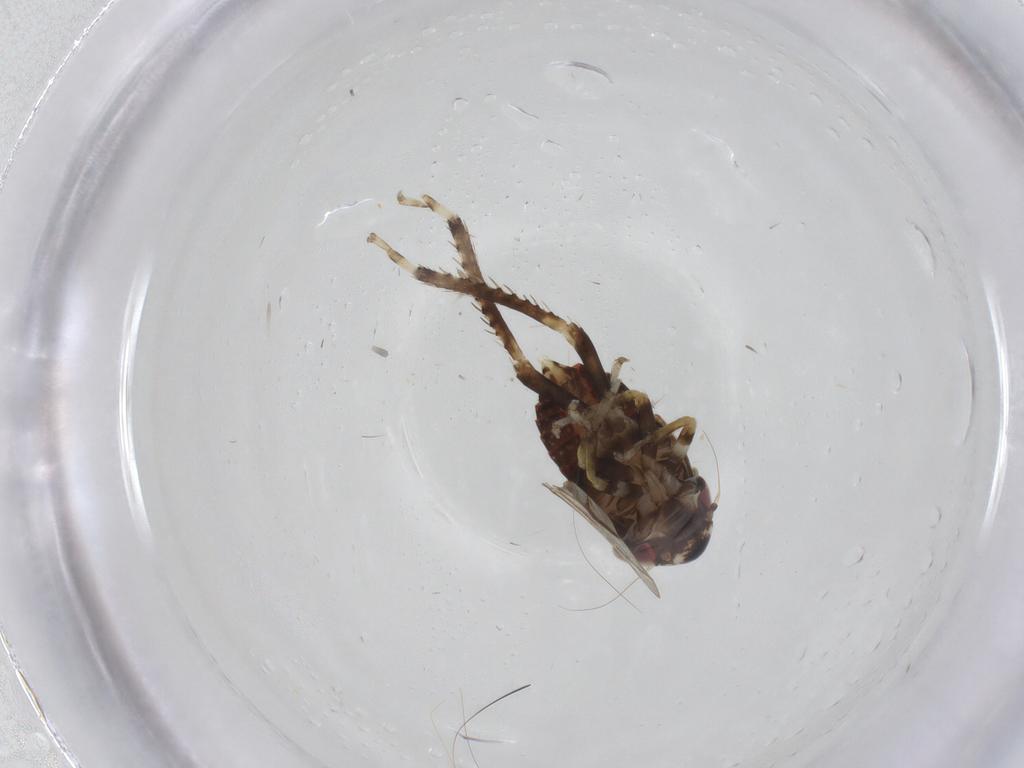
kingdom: Animalia
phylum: Arthropoda
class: Insecta
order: Hemiptera
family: Cicadellidae
